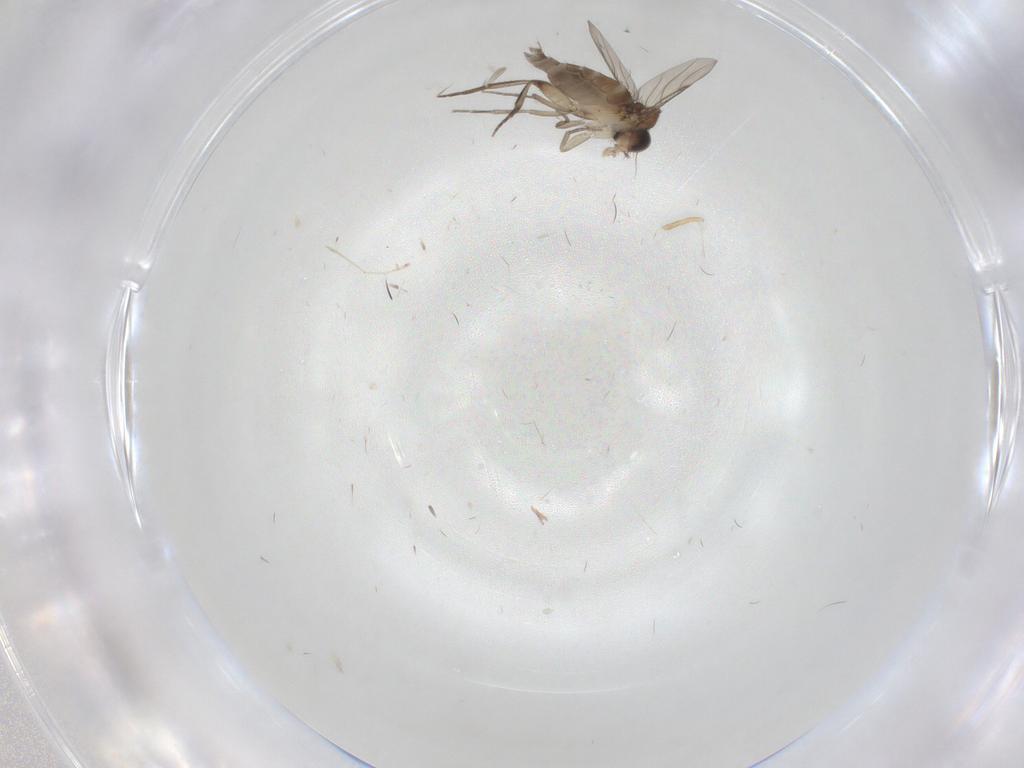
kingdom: Animalia
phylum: Arthropoda
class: Insecta
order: Diptera
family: Phoridae
